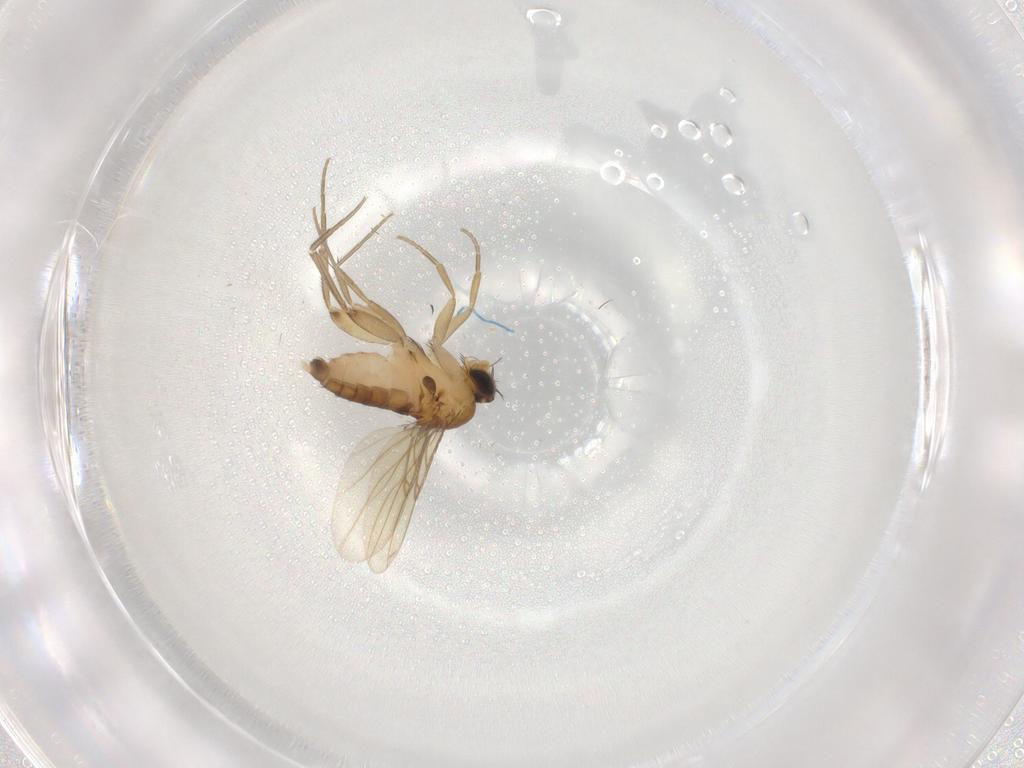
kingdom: Animalia
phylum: Arthropoda
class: Insecta
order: Diptera
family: Phoridae
